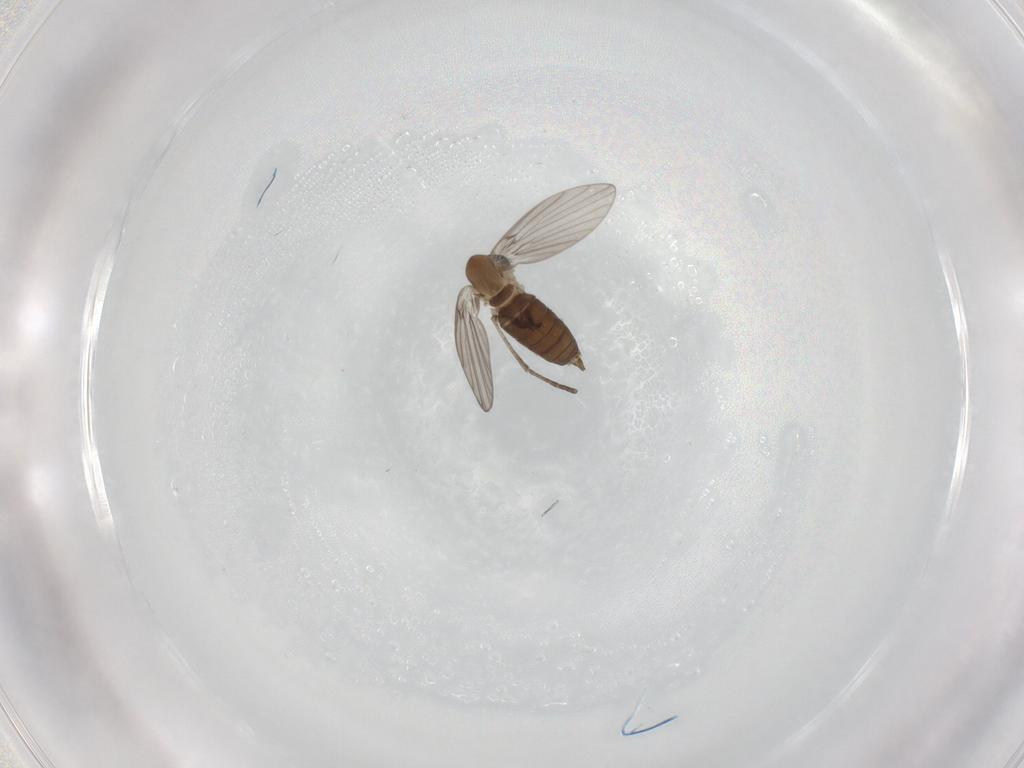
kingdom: Animalia
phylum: Arthropoda
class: Insecta
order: Diptera
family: Psychodidae
